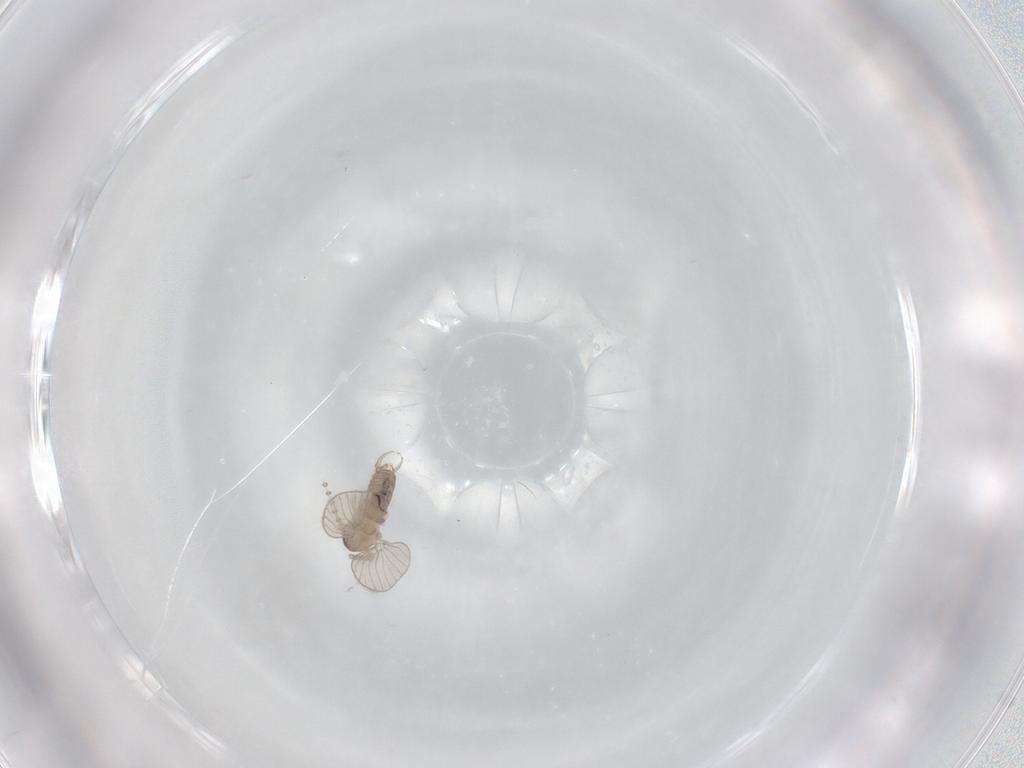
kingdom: Animalia
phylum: Arthropoda
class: Insecta
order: Diptera
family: Psychodidae
